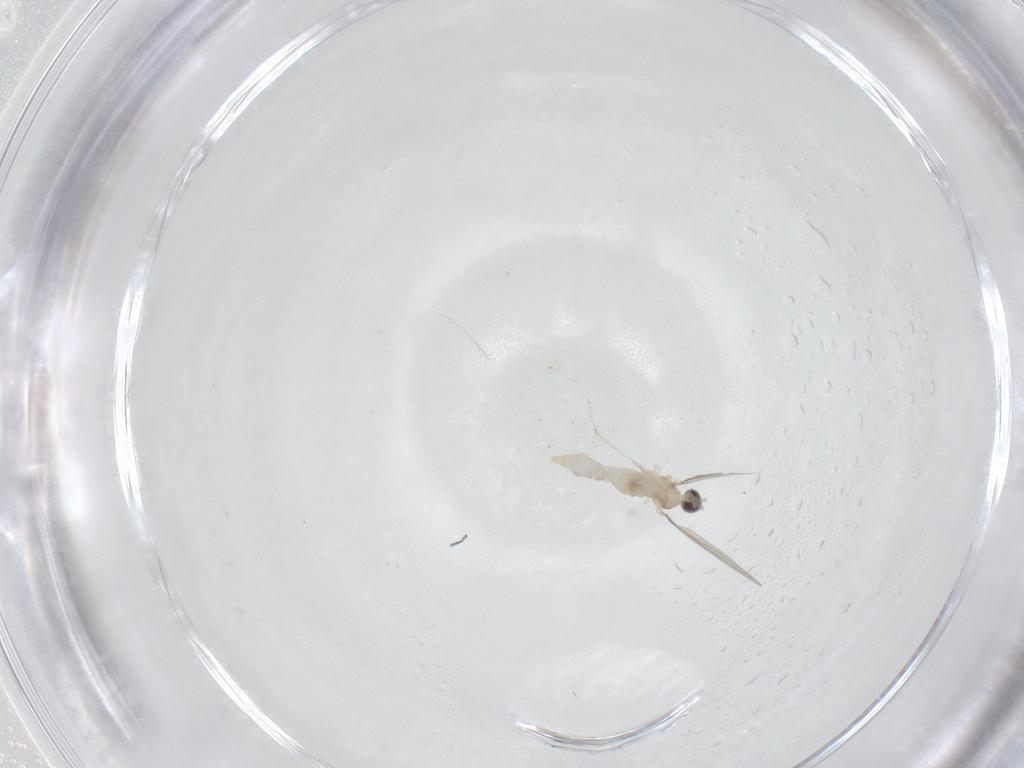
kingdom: Animalia
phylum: Arthropoda
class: Insecta
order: Diptera
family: Cecidomyiidae
